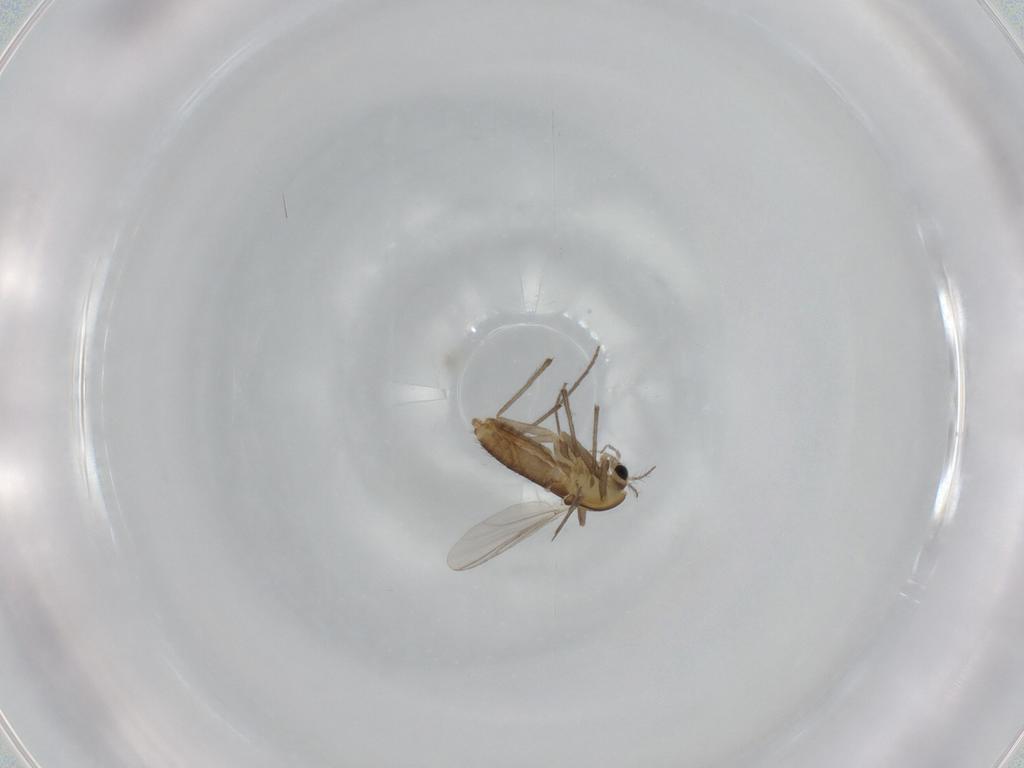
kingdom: Animalia
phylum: Arthropoda
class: Insecta
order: Diptera
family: Chironomidae
